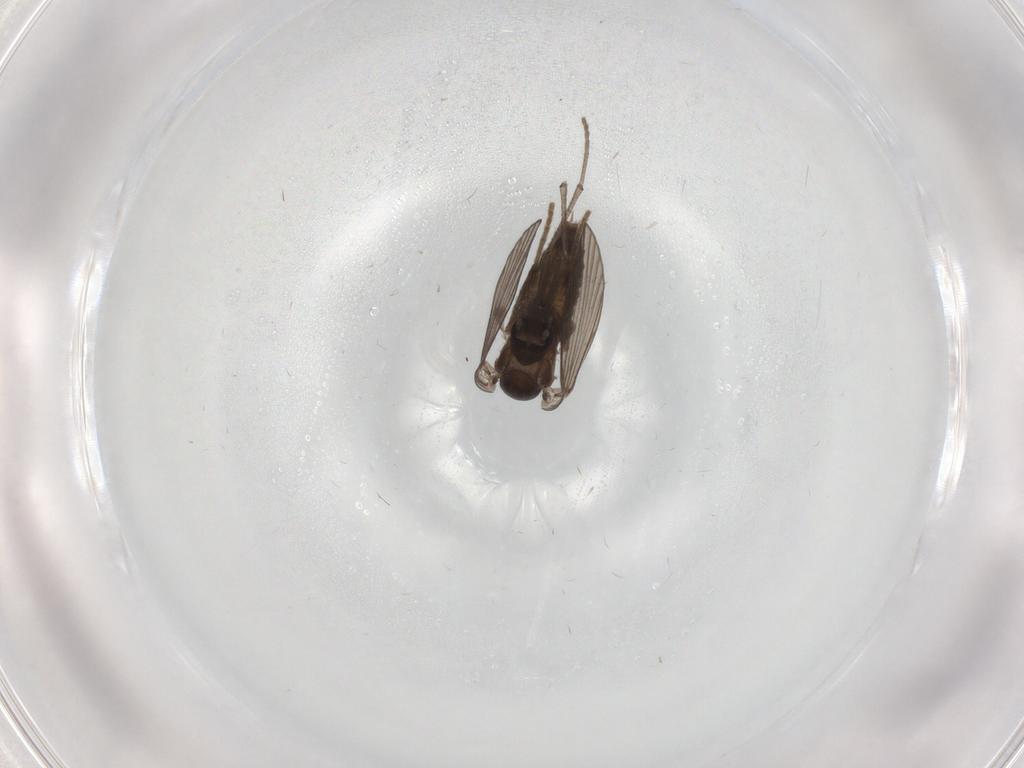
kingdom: Animalia
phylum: Arthropoda
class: Insecta
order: Diptera
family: Psychodidae
